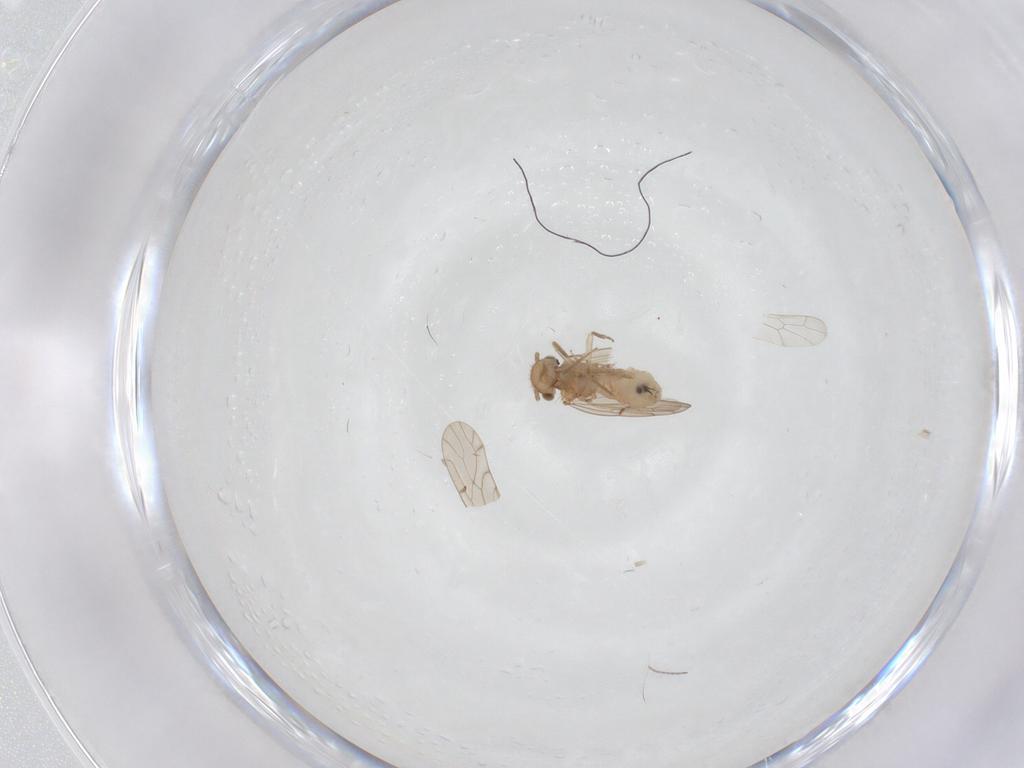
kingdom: Animalia
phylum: Arthropoda
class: Insecta
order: Psocodea
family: Ectopsocidae
